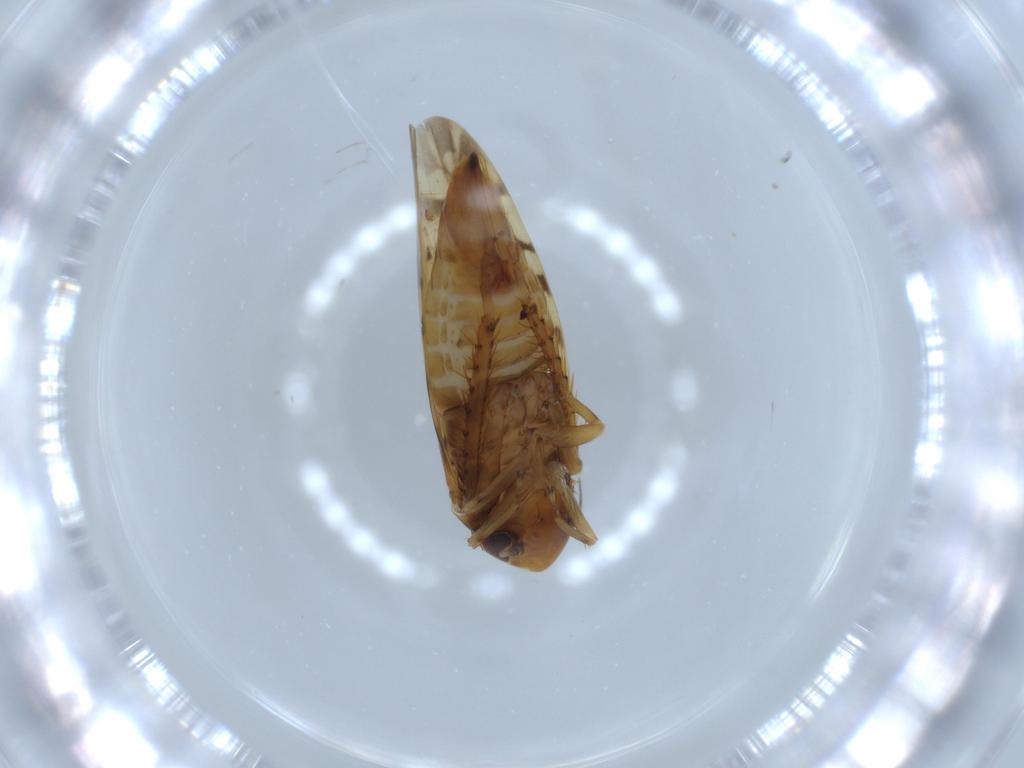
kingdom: Animalia
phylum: Arthropoda
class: Insecta
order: Hemiptera
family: Cicadellidae
